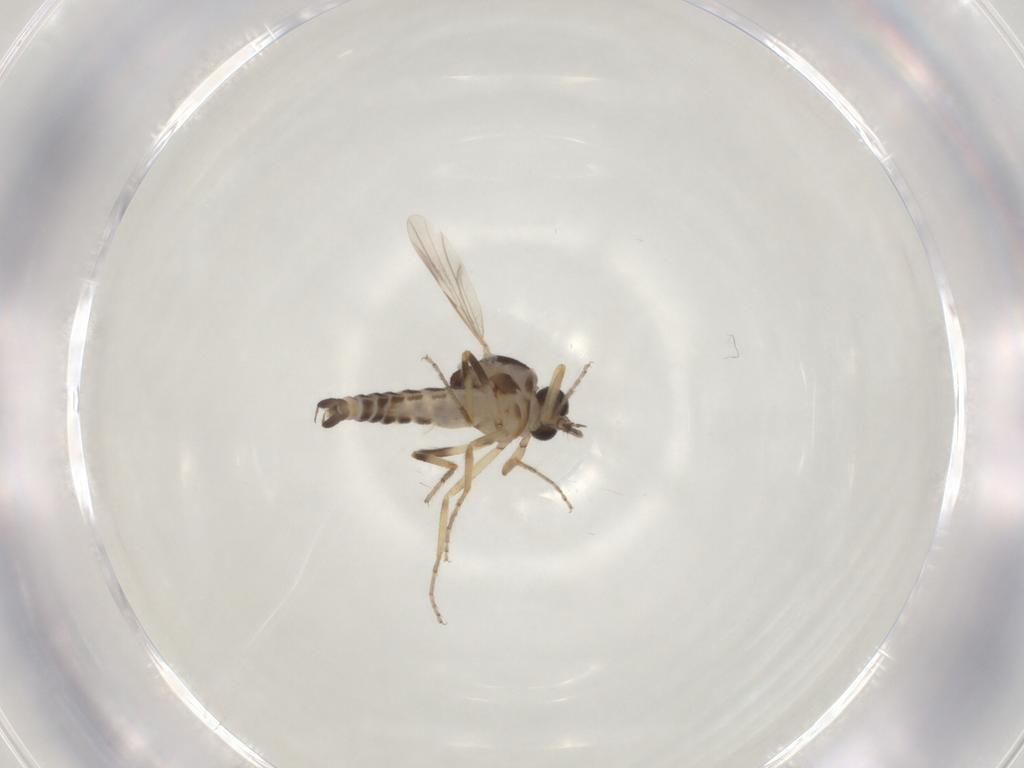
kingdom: Animalia
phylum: Arthropoda
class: Insecta
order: Diptera
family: Ceratopogonidae
